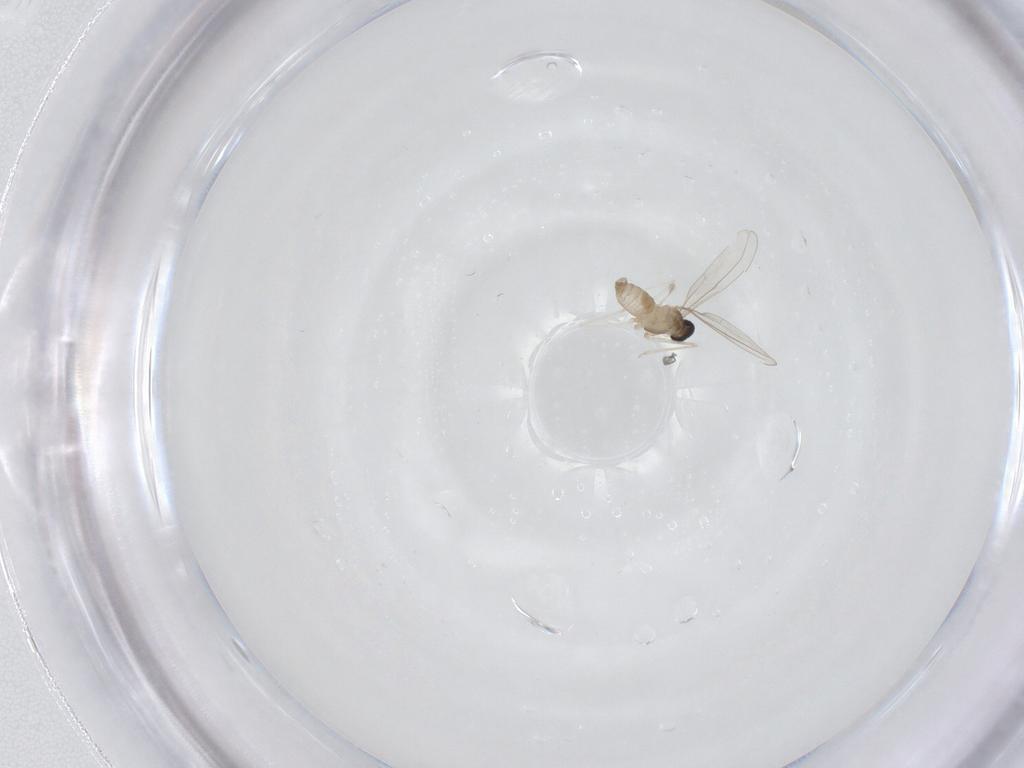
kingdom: Animalia
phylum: Arthropoda
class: Insecta
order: Diptera
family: Cecidomyiidae
